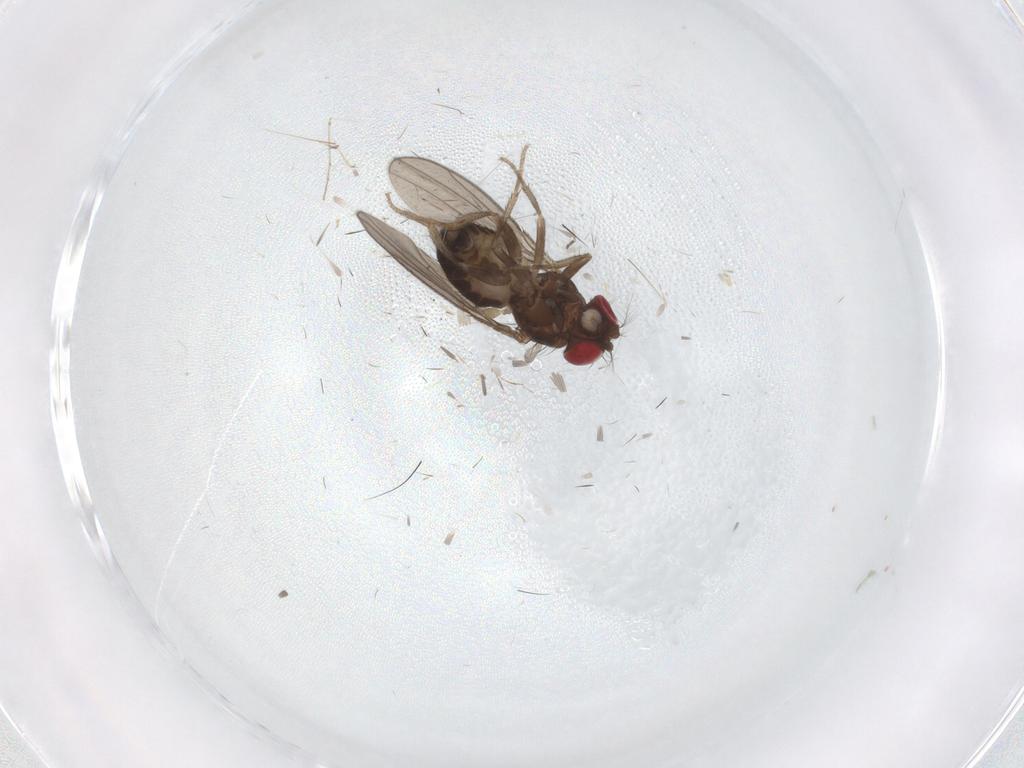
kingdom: Animalia
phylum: Arthropoda
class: Insecta
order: Diptera
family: Drosophilidae
